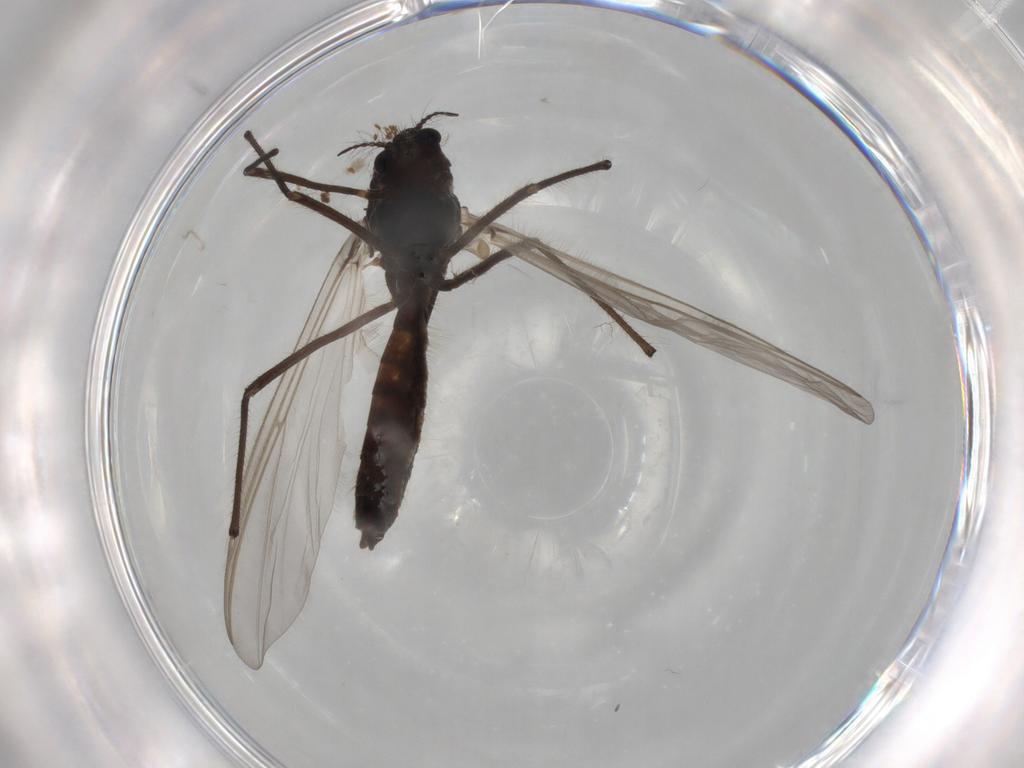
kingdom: Animalia
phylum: Arthropoda
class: Insecta
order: Diptera
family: Chironomidae
